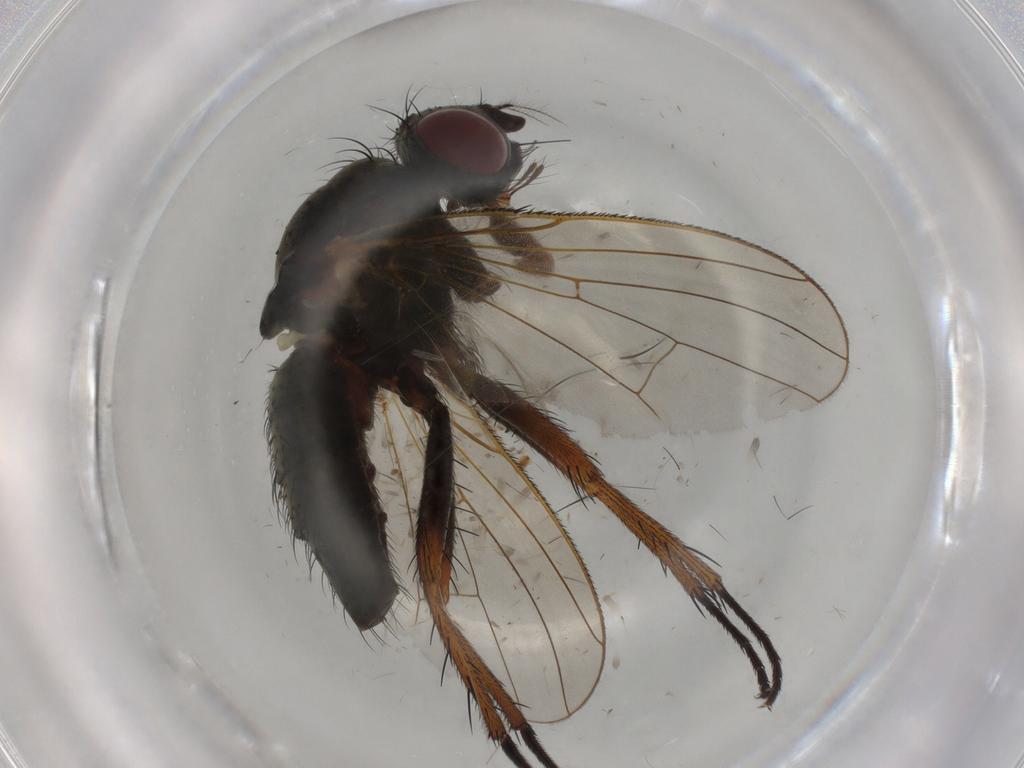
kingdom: Animalia
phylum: Arthropoda
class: Insecta
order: Diptera
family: Anthomyiidae
